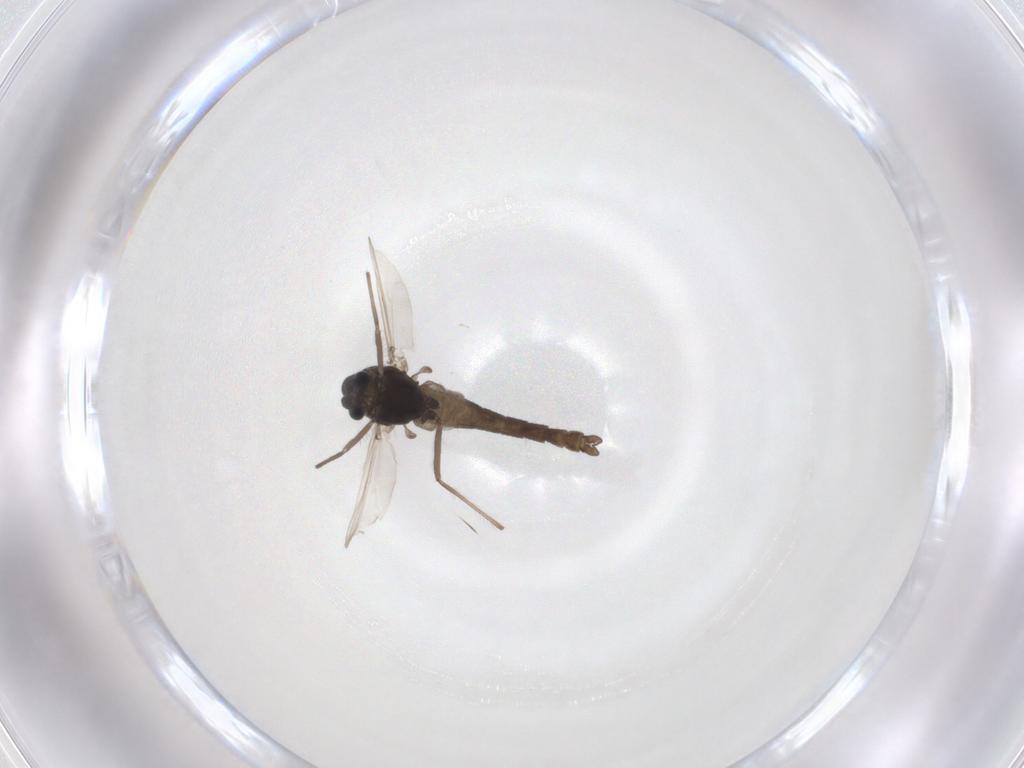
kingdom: Animalia
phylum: Arthropoda
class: Insecta
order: Diptera
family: Chironomidae
